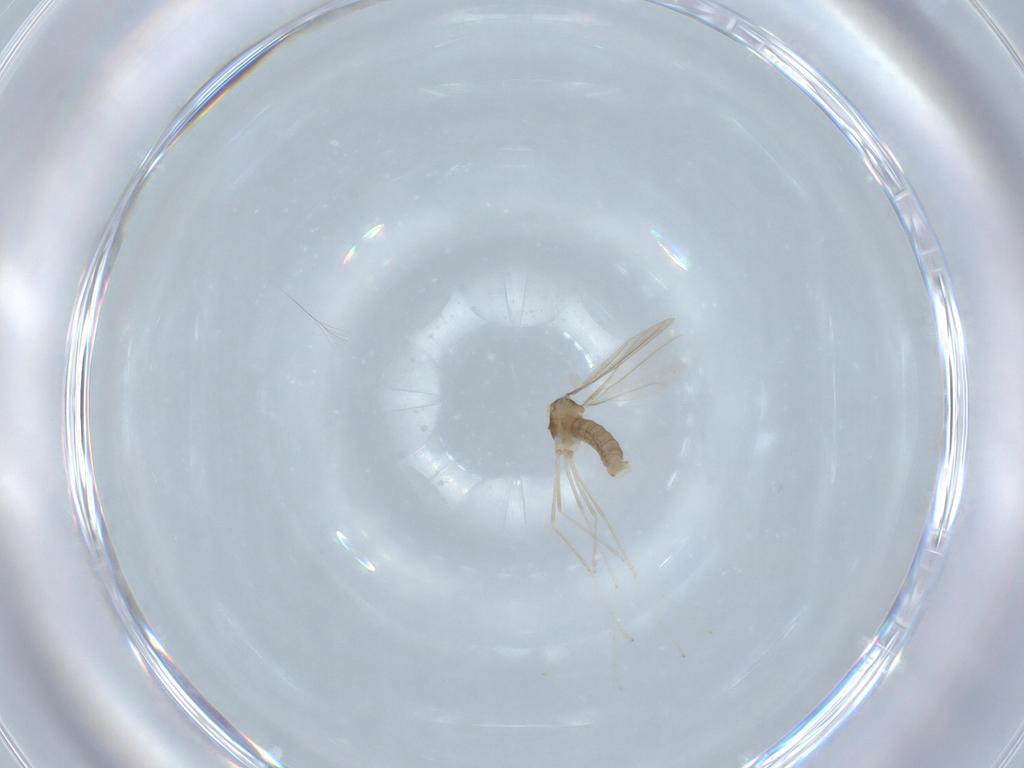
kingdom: Animalia
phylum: Arthropoda
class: Insecta
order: Diptera
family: Cecidomyiidae
